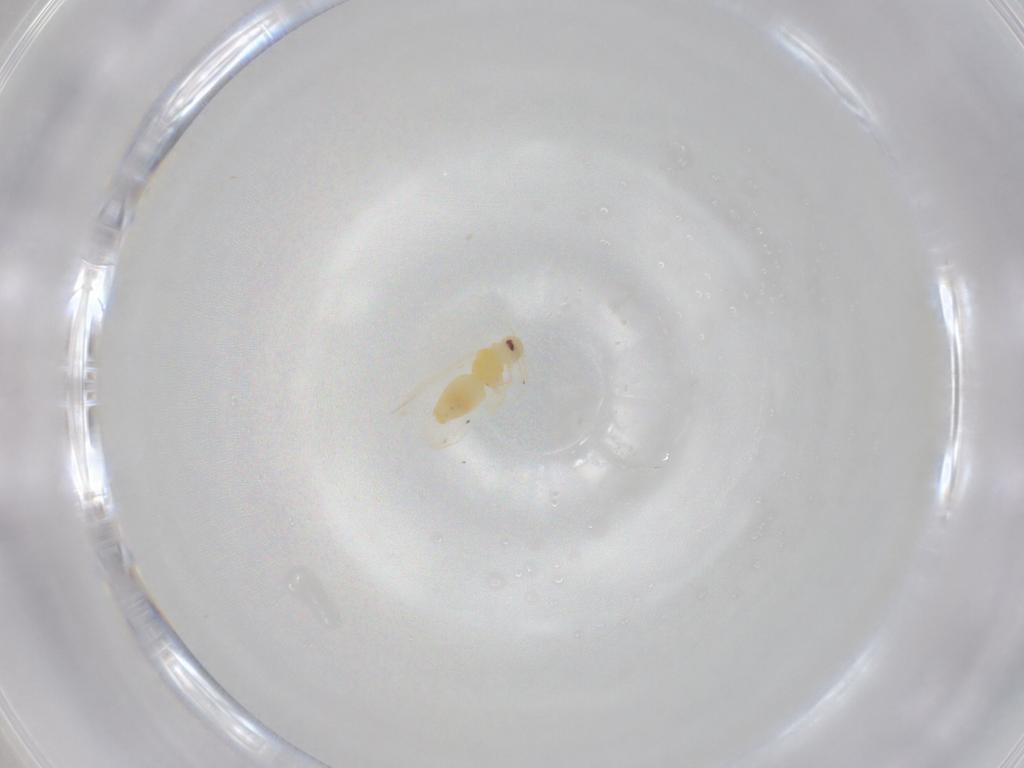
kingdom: Animalia
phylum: Arthropoda
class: Insecta
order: Hemiptera
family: Aleyrodidae
